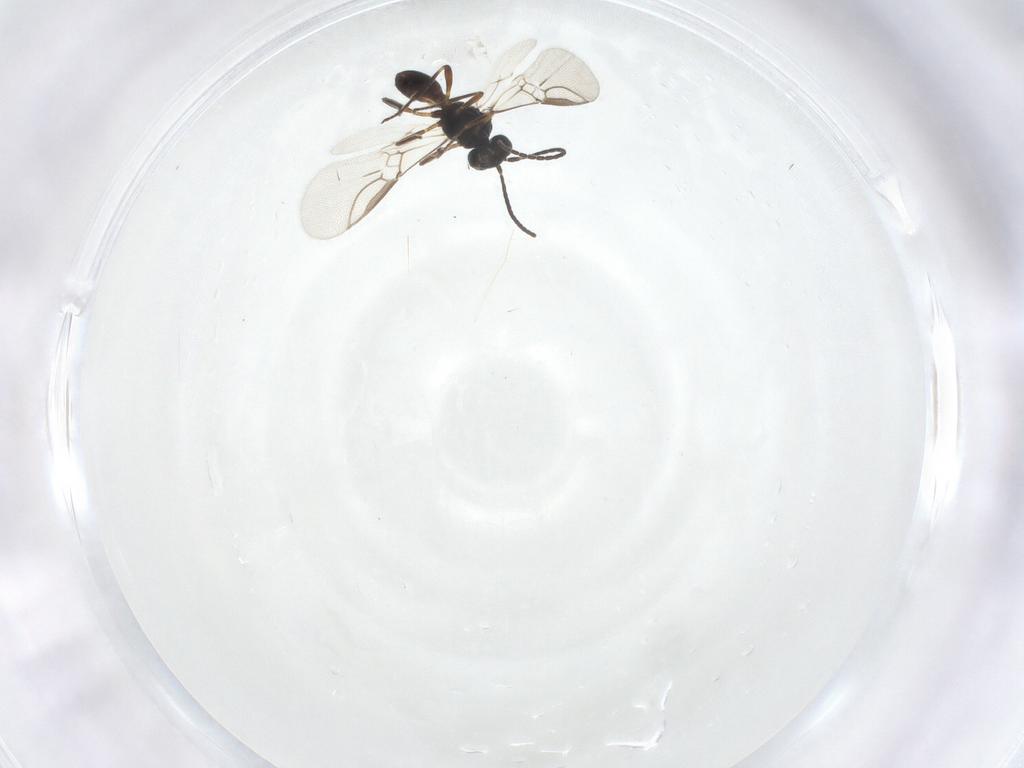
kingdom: Animalia
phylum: Arthropoda
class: Insecta
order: Hymenoptera
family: Braconidae
